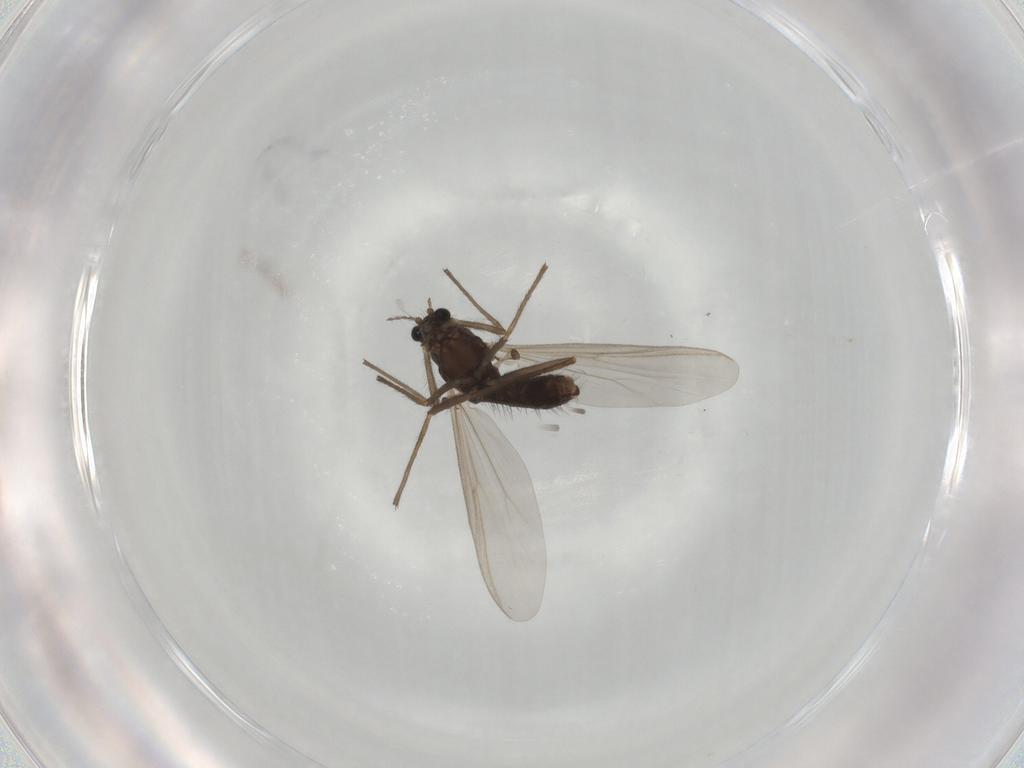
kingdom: Animalia
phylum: Arthropoda
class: Insecta
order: Diptera
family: Chironomidae
